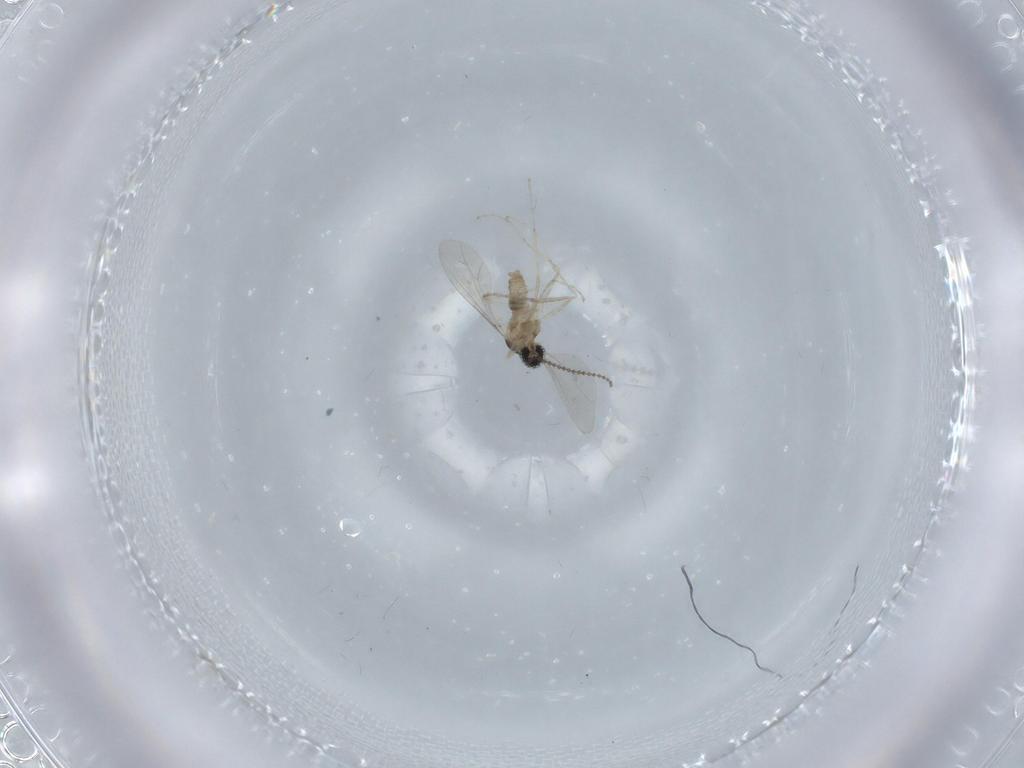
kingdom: Animalia
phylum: Arthropoda
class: Insecta
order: Diptera
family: Cecidomyiidae
